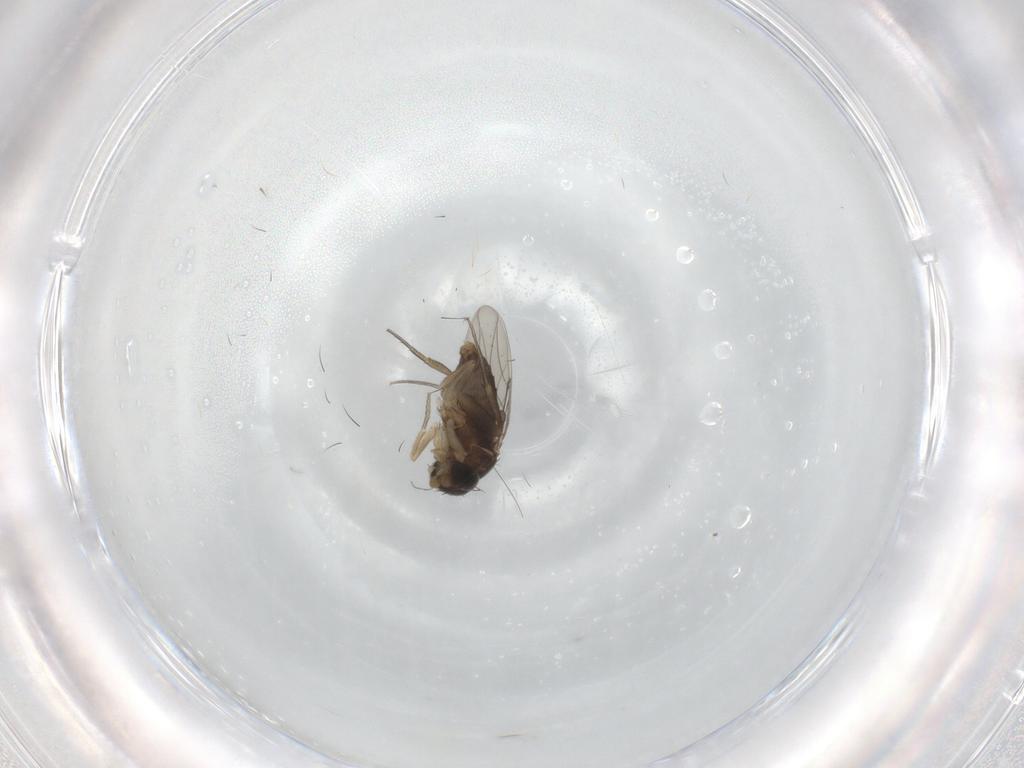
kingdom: Animalia
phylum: Arthropoda
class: Insecta
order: Diptera
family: Phoridae
